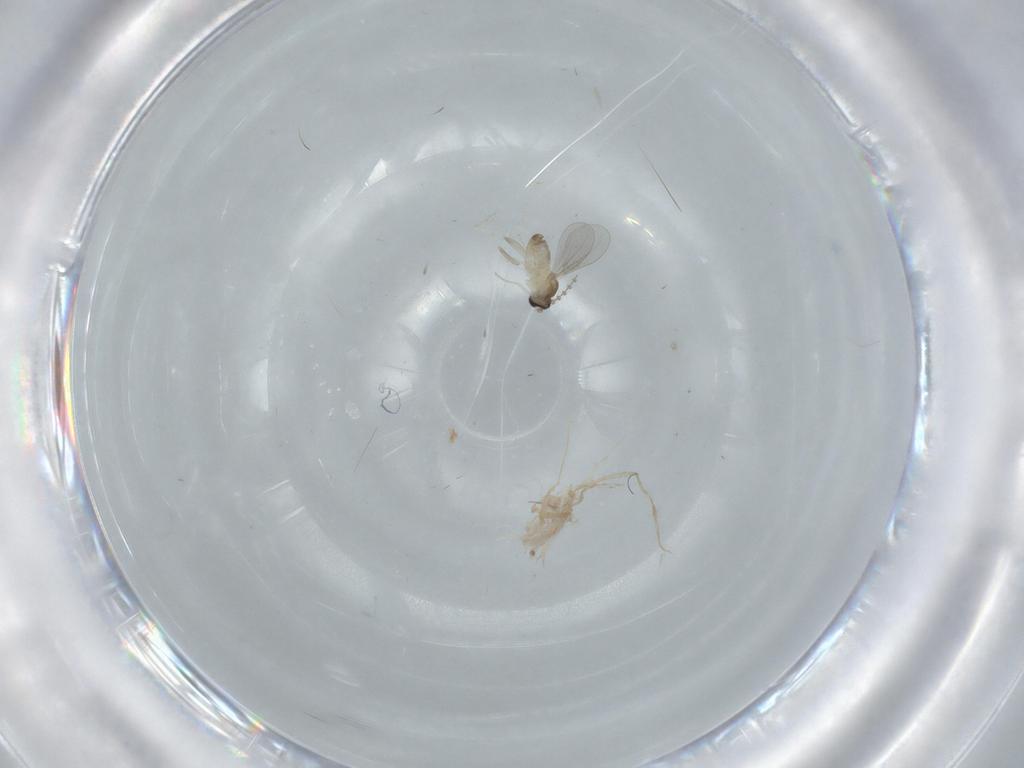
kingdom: Animalia
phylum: Arthropoda
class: Insecta
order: Diptera
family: Cecidomyiidae
